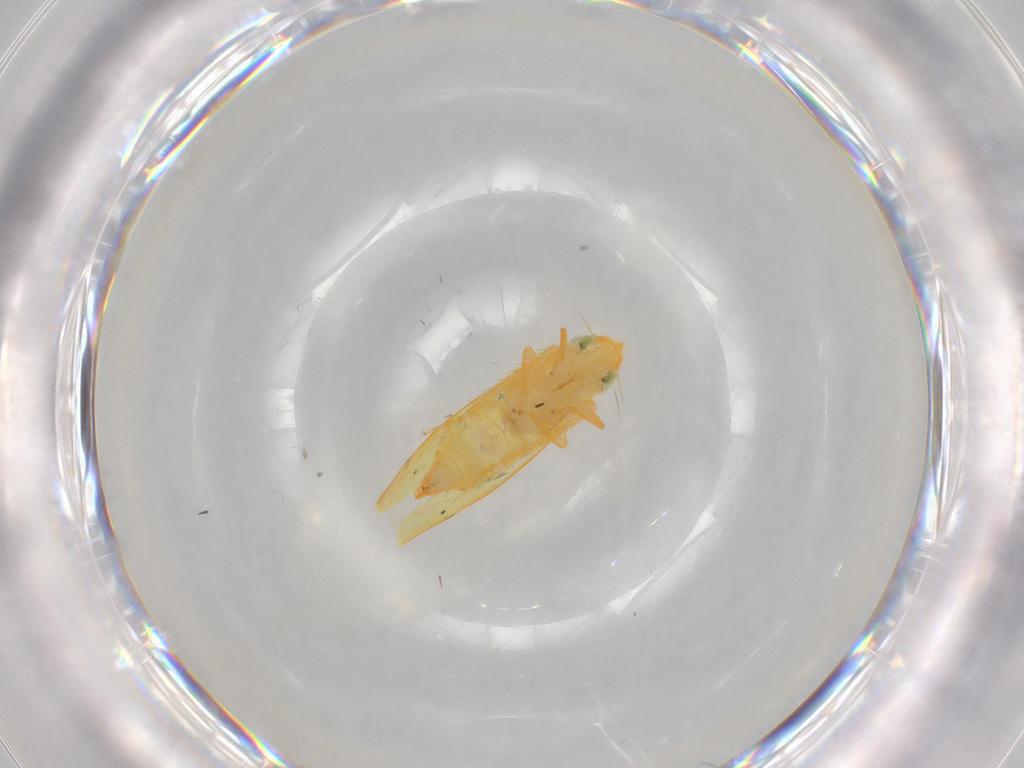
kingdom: Animalia
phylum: Arthropoda
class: Insecta
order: Hemiptera
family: Cicadellidae
